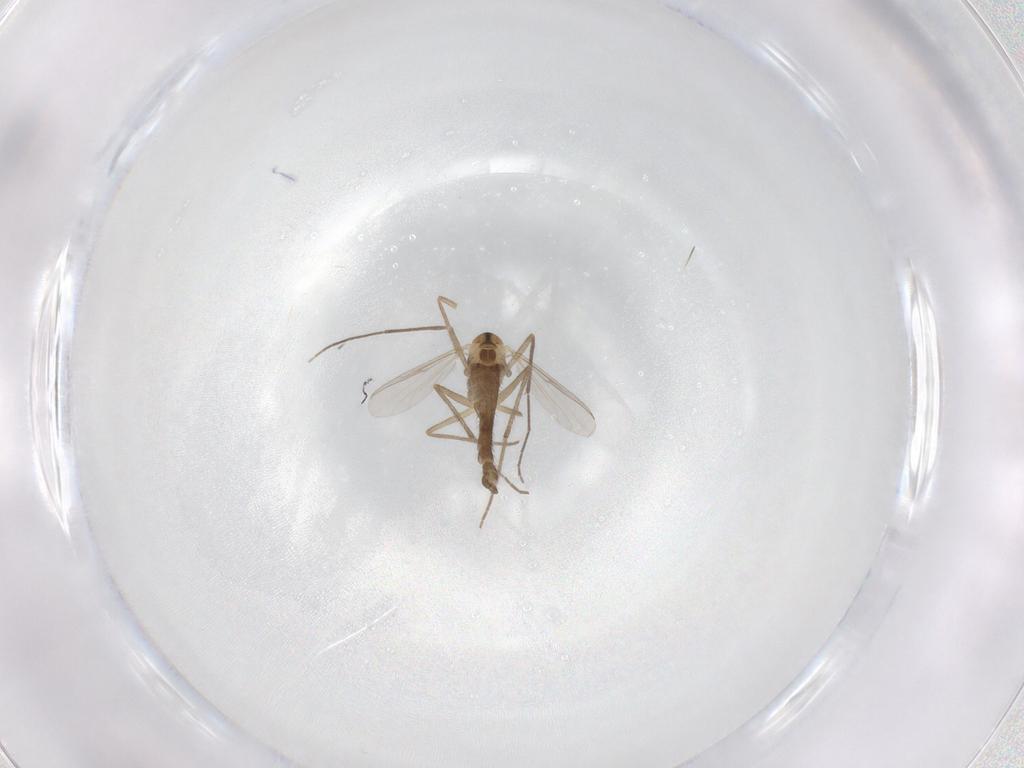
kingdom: Animalia
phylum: Arthropoda
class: Insecta
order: Diptera
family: Chironomidae
